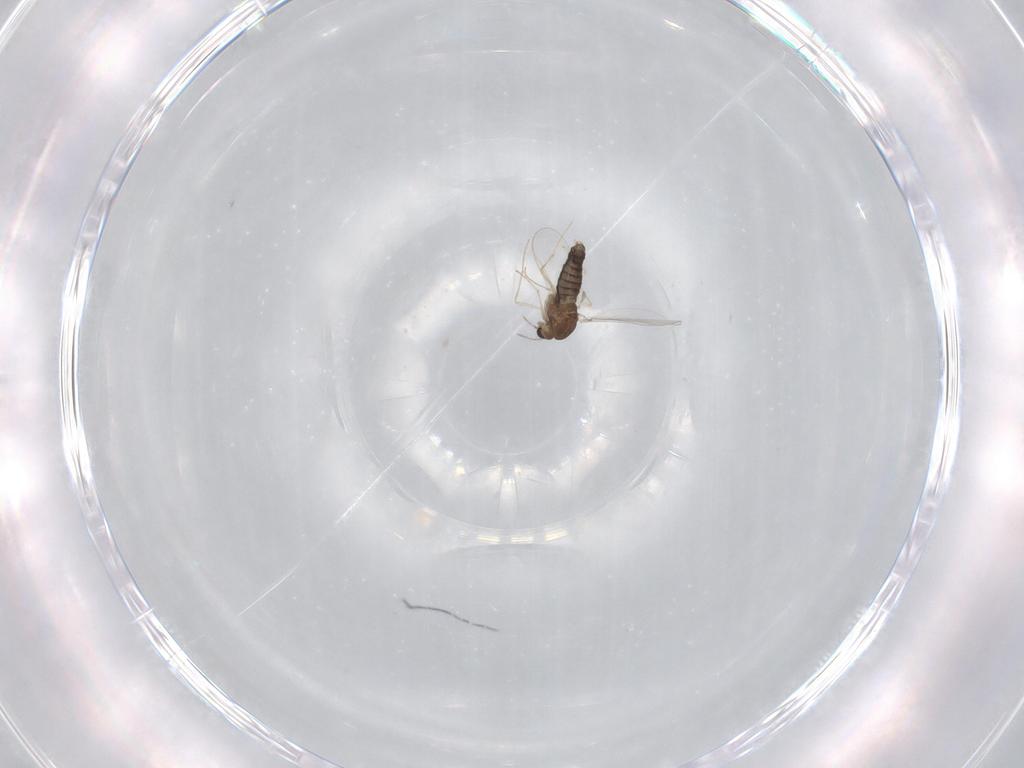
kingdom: Animalia
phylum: Arthropoda
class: Insecta
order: Diptera
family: Chironomidae
